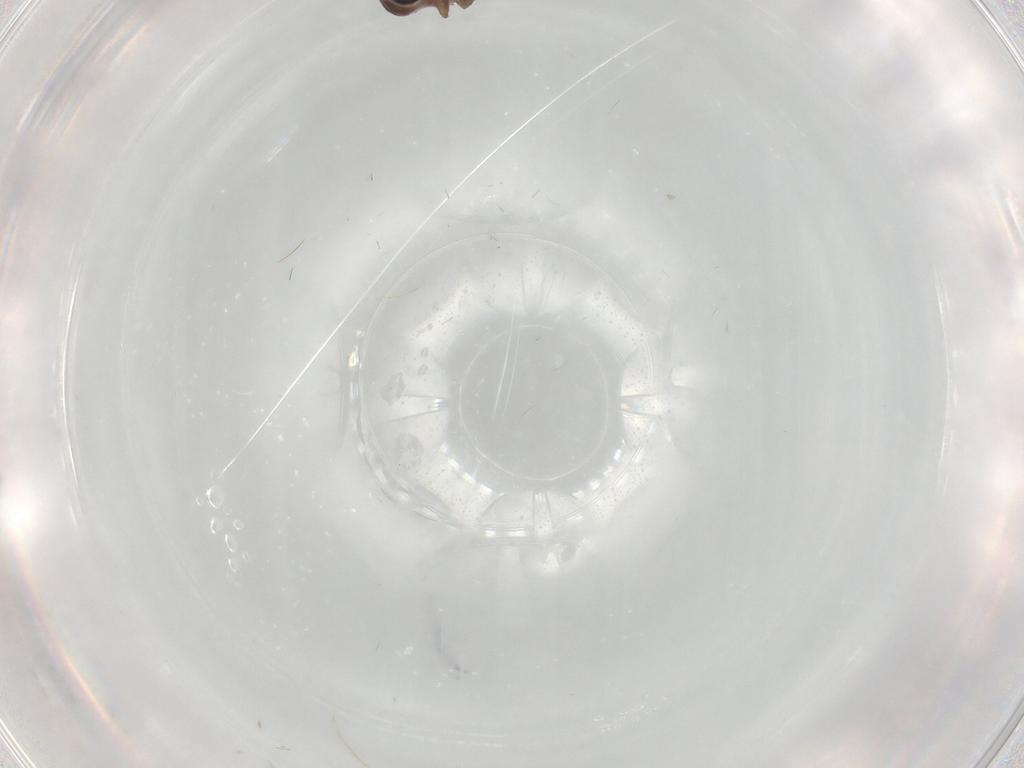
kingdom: Animalia
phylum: Arthropoda
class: Insecta
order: Diptera
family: Ceratopogonidae
